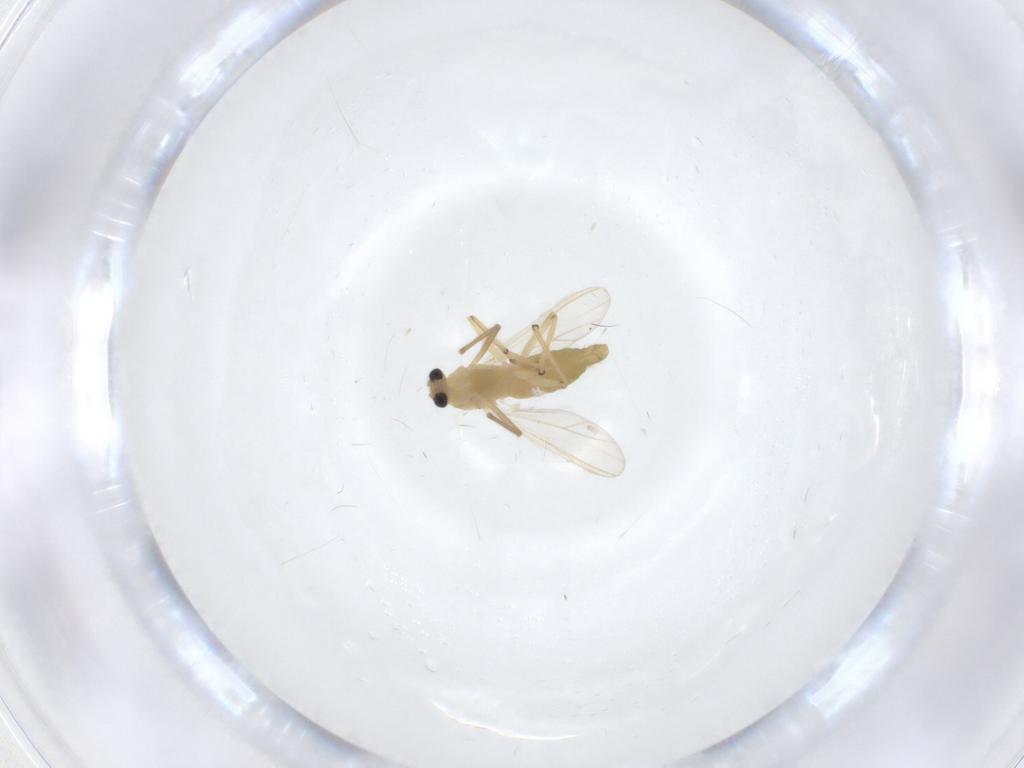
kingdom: Animalia
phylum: Arthropoda
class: Insecta
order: Diptera
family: Chironomidae
